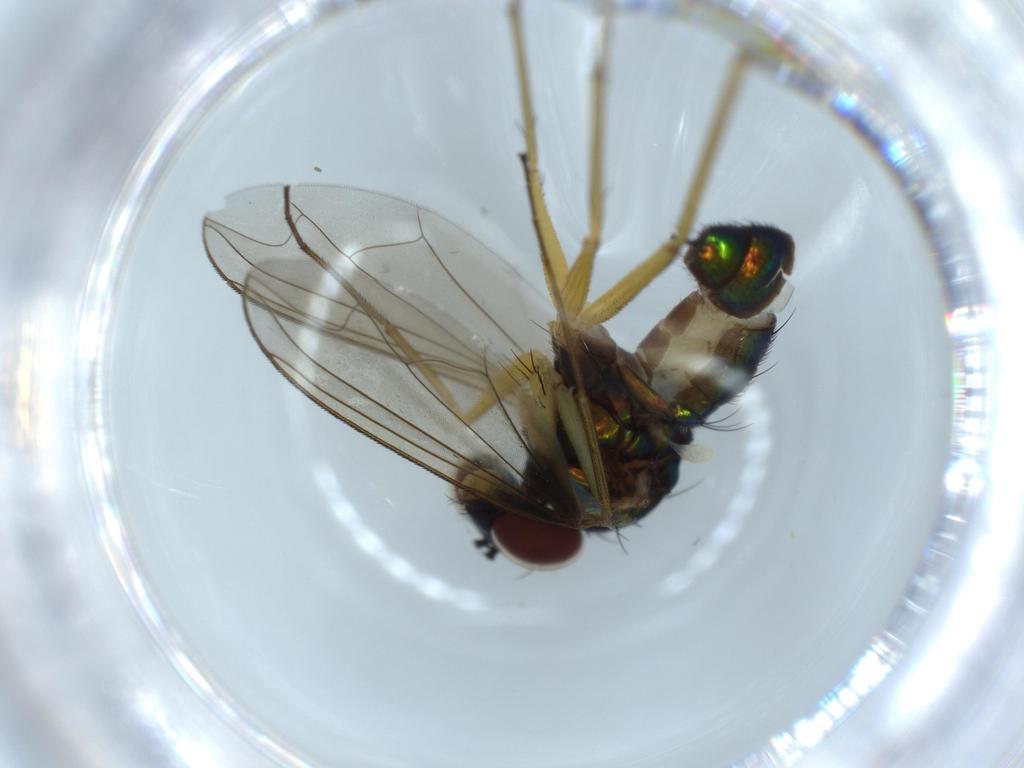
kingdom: Animalia
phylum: Arthropoda
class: Insecta
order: Diptera
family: Dolichopodidae
